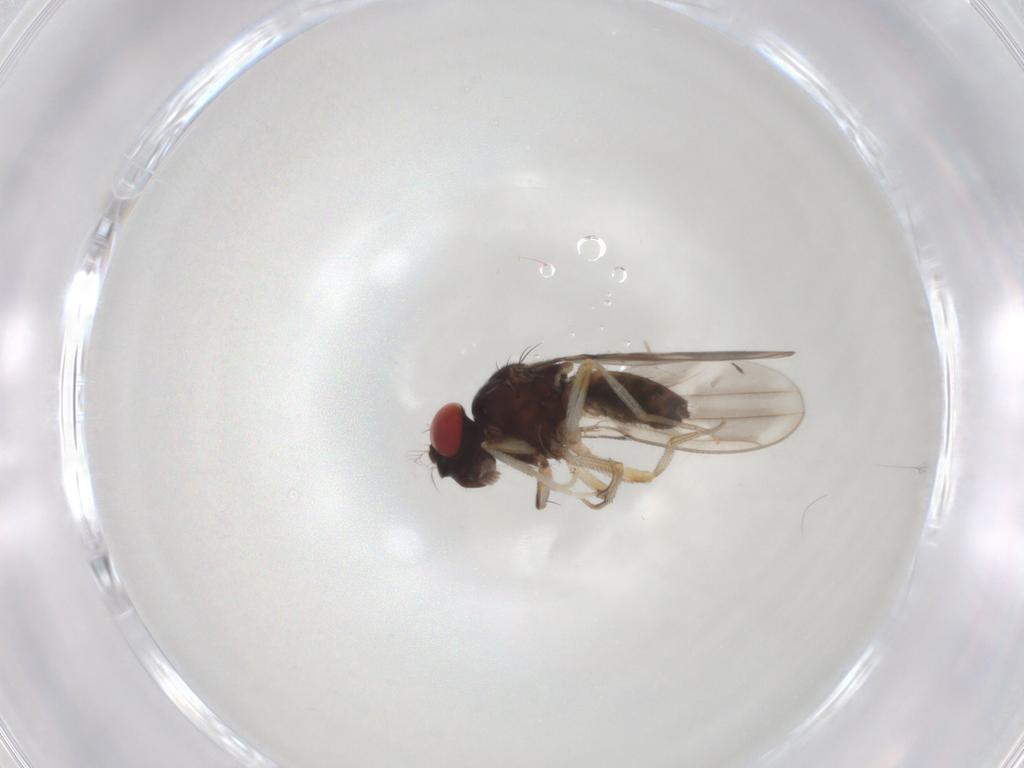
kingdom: Animalia
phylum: Arthropoda
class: Insecta
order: Diptera
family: Drosophilidae
